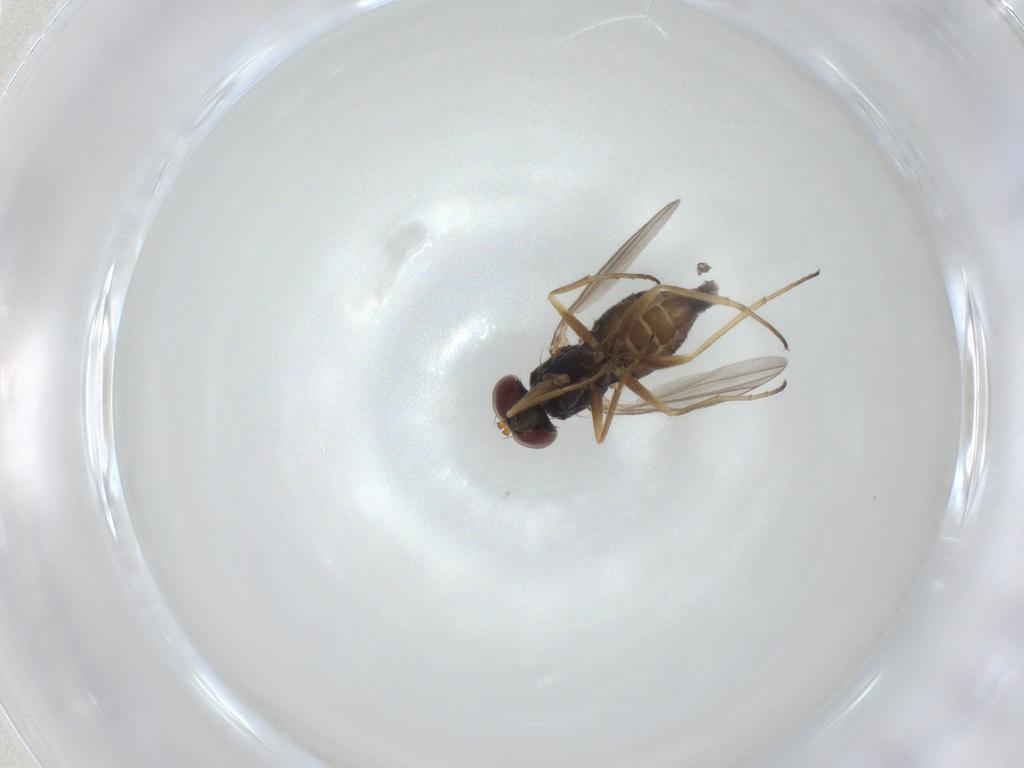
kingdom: Animalia
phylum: Arthropoda
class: Insecta
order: Diptera
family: Dolichopodidae
